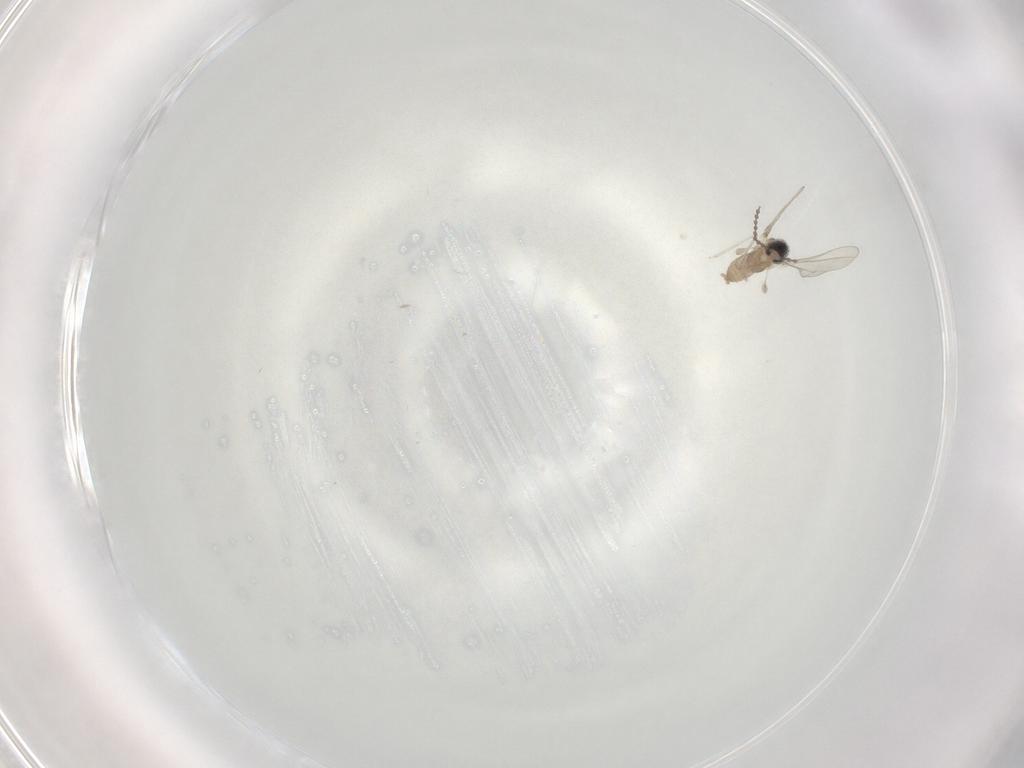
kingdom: Animalia
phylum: Arthropoda
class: Insecta
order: Diptera
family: Cecidomyiidae
